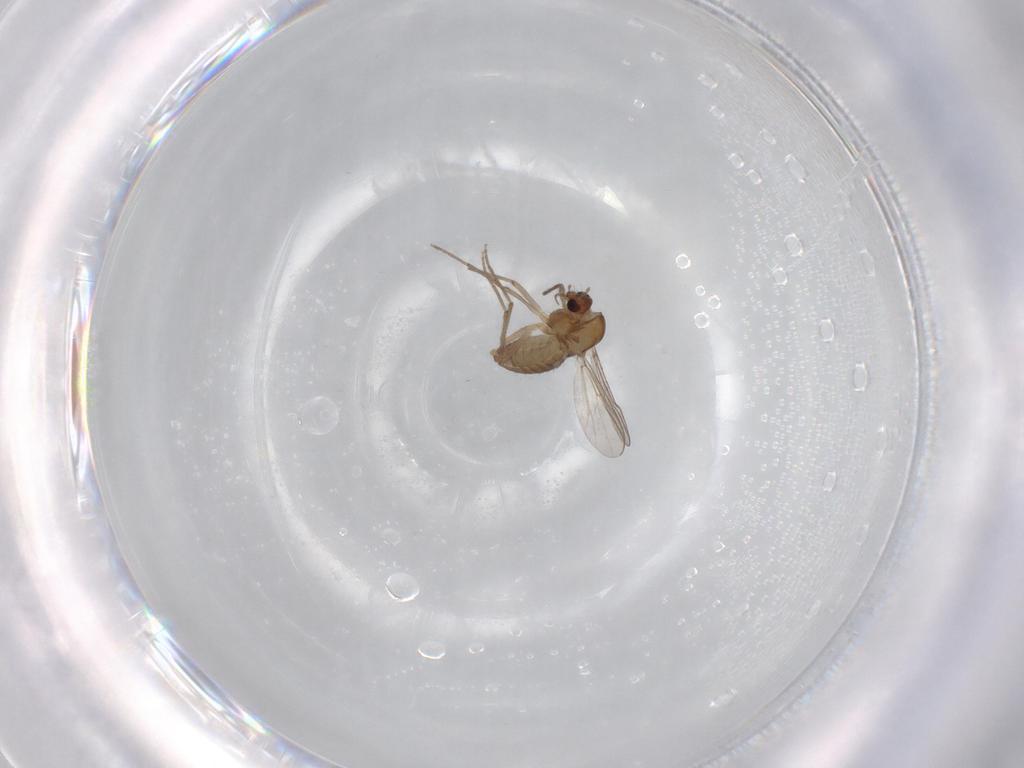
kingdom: Animalia
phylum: Arthropoda
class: Insecta
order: Diptera
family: Chironomidae
